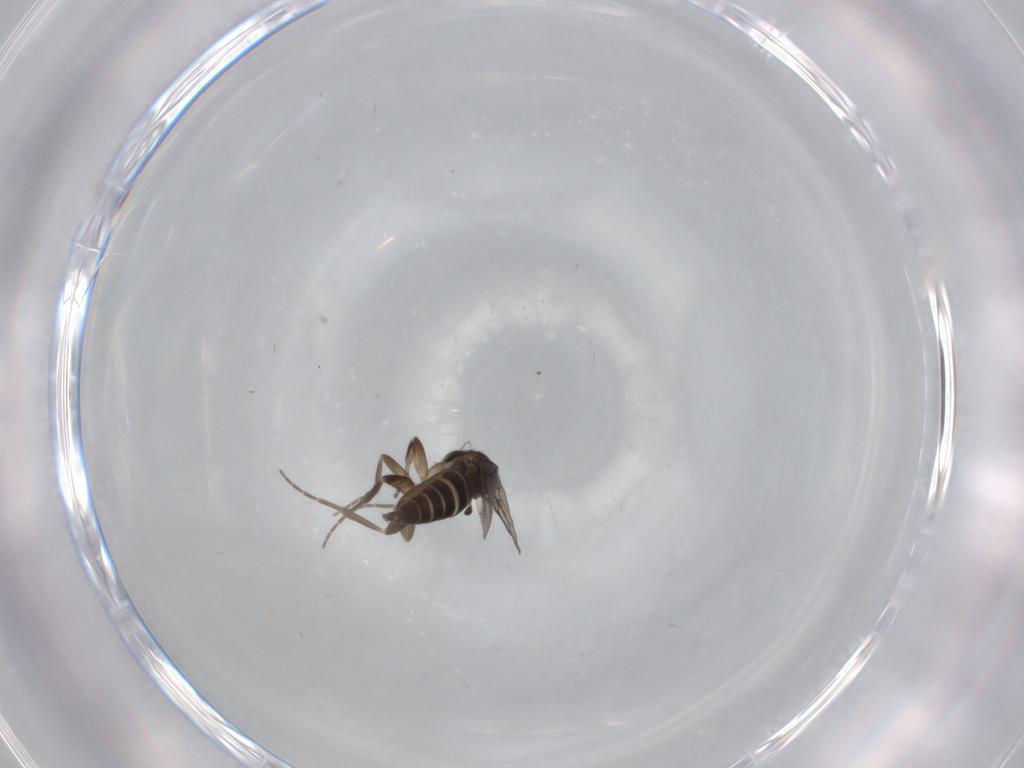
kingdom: Animalia
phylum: Arthropoda
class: Insecta
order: Diptera
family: Phoridae
